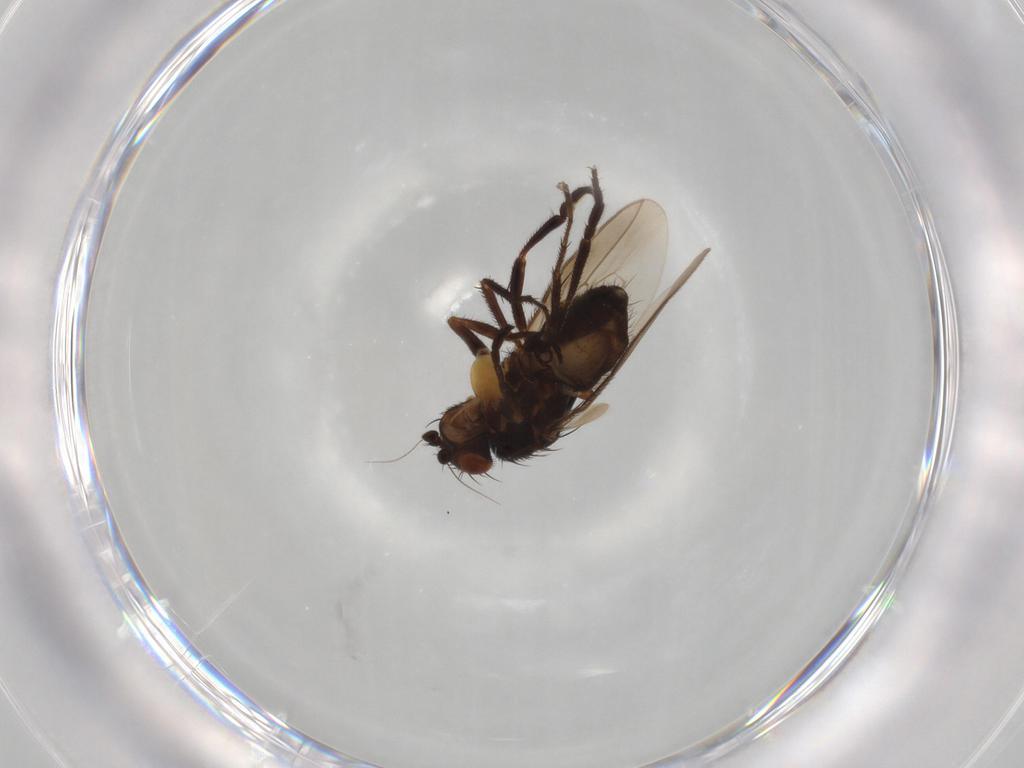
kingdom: Animalia
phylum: Arthropoda
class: Insecta
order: Diptera
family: Sphaeroceridae
